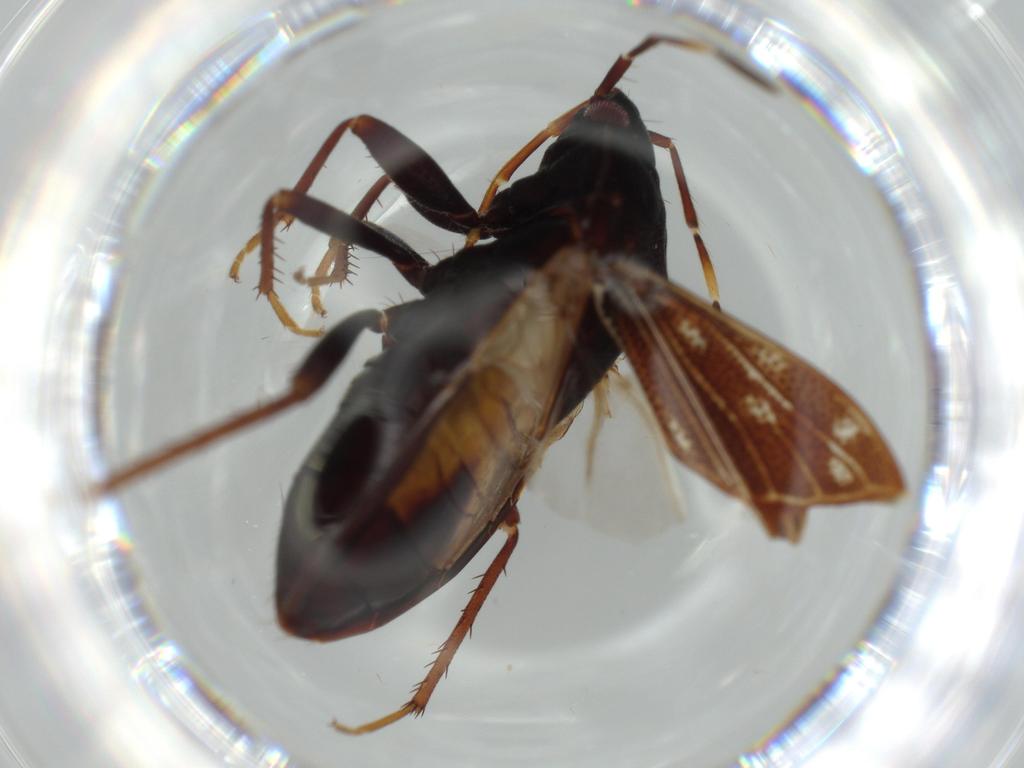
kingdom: Animalia
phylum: Arthropoda
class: Insecta
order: Hemiptera
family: Rhyparochromidae
